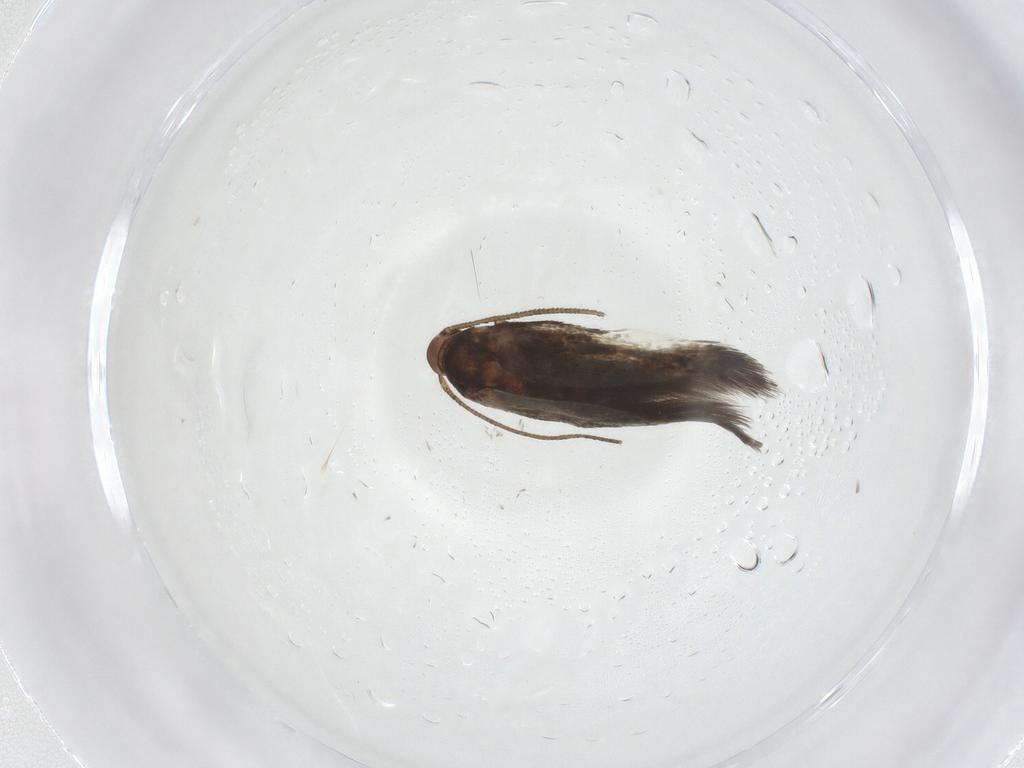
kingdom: Animalia
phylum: Arthropoda
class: Insecta
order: Lepidoptera
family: Elachistidae
